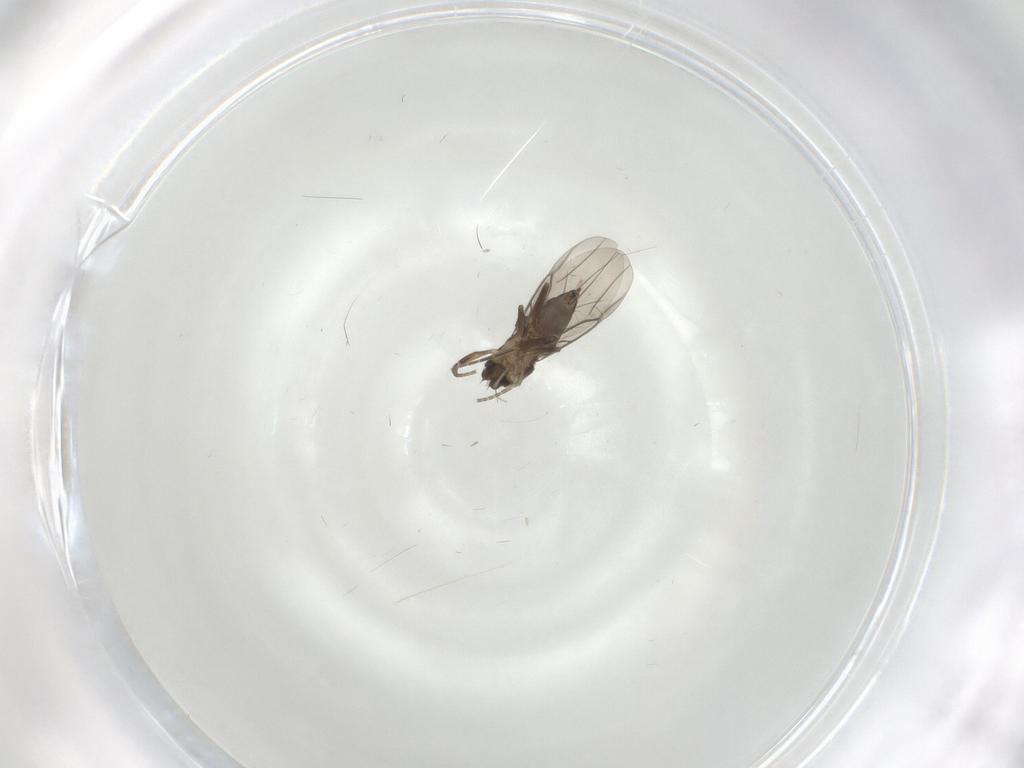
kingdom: Animalia
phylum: Arthropoda
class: Insecta
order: Diptera
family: Phoridae
